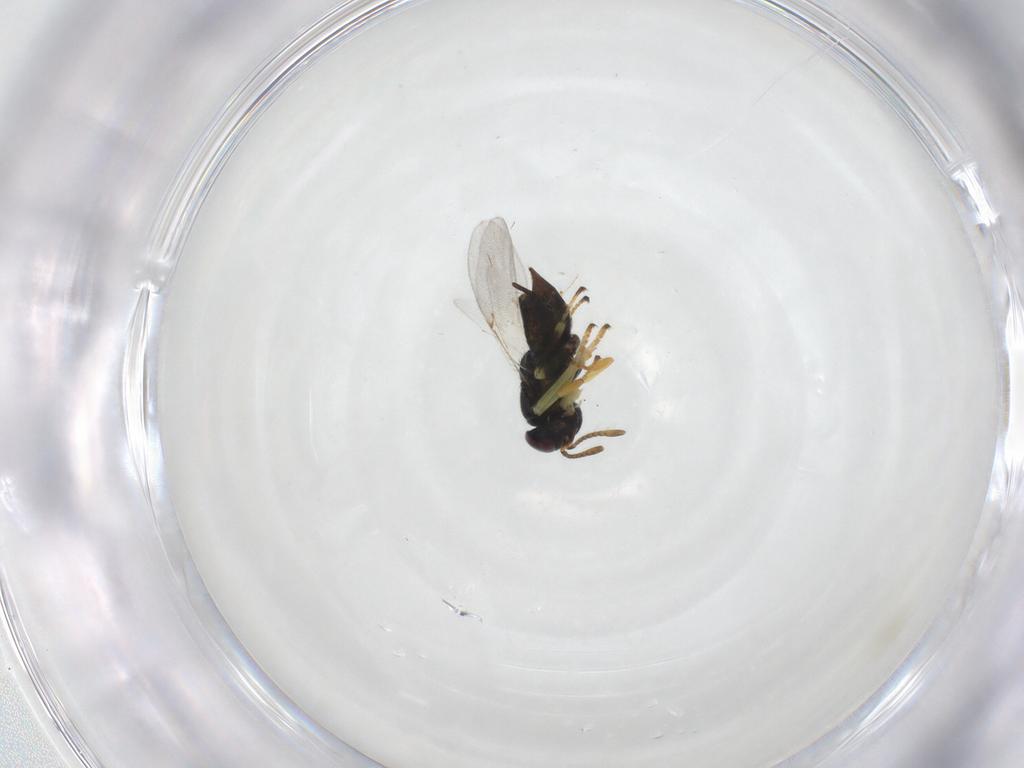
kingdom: Animalia
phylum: Arthropoda
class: Insecta
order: Hymenoptera
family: Encyrtidae
